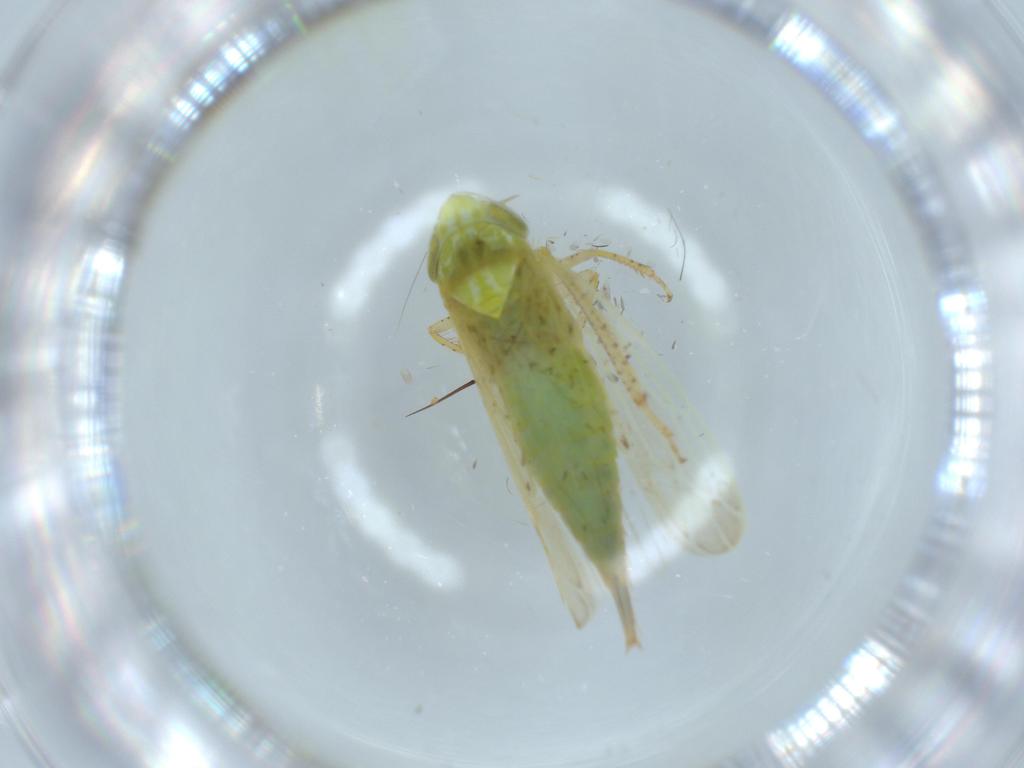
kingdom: Animalia
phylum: Arthropoda
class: Insecta
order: Hemiptera
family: Cicadellidae
